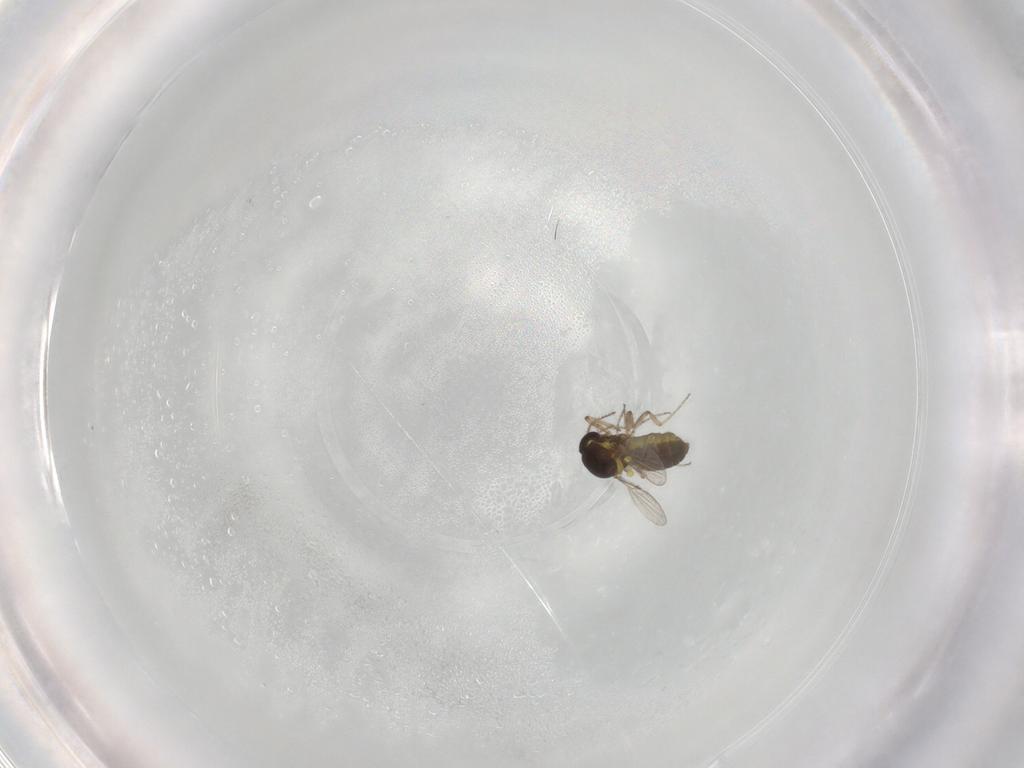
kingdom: Animalia
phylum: Arthropoda
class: Insecta
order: Diptera
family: Ceratopogonidae
